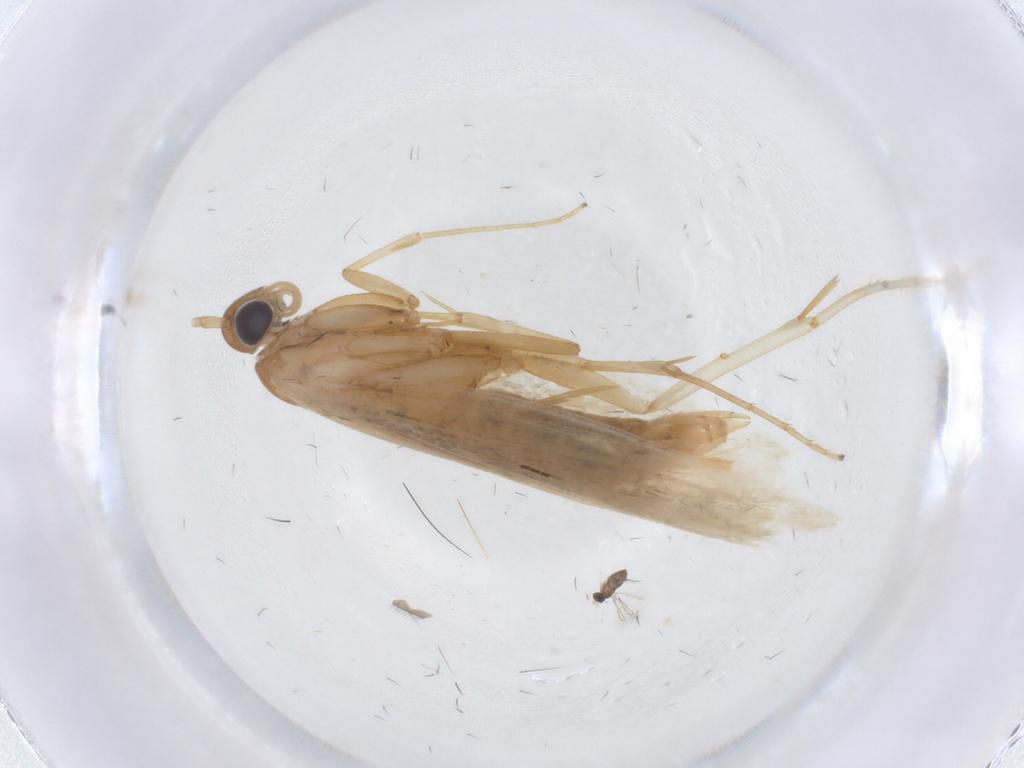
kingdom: Animalia
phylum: Arthropoda
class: Insecta
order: Lepidoptera
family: Oecophoridae
